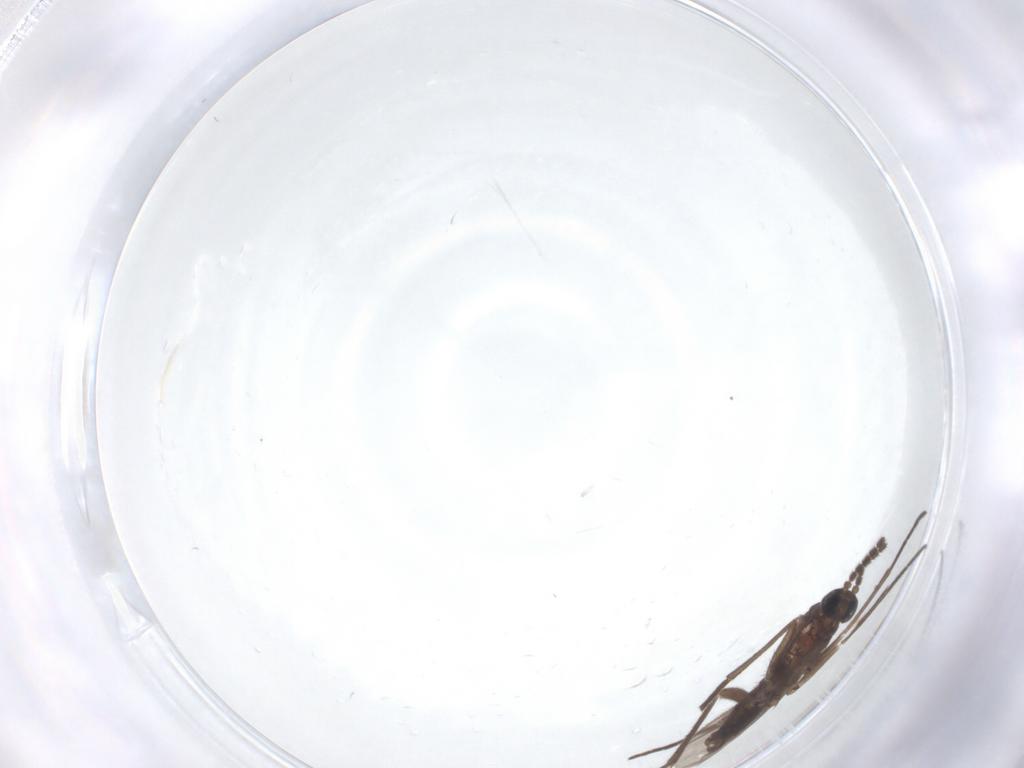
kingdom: Animalia
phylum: Arthropoda
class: Insecta
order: Diptera
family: Sciaridae
